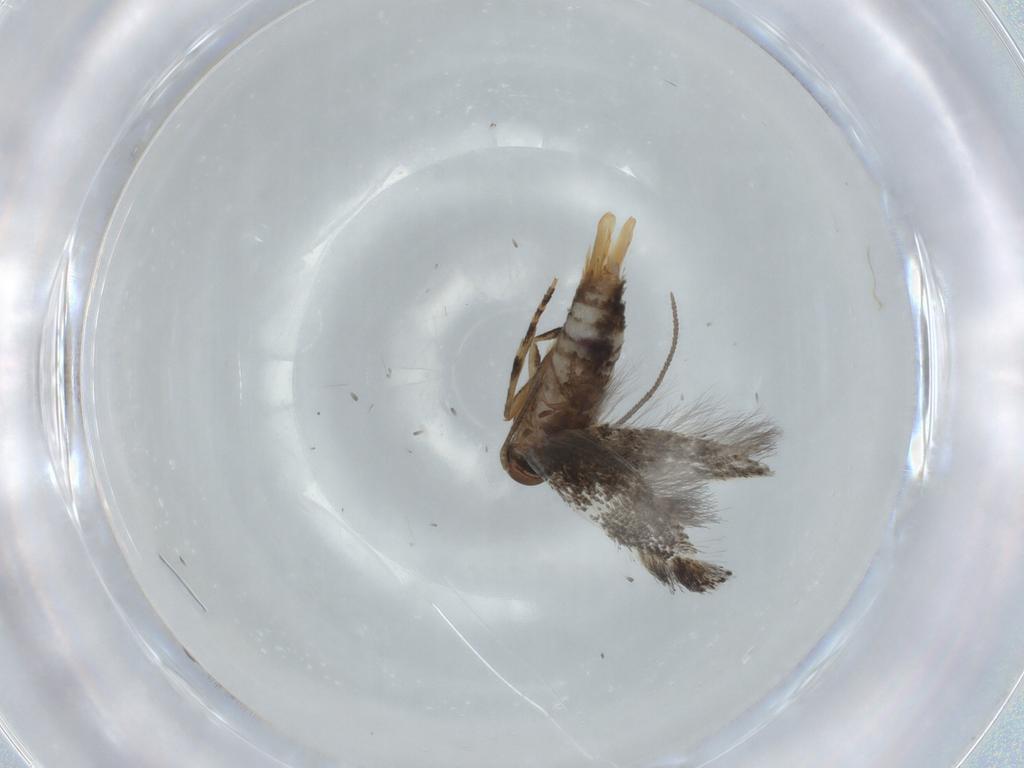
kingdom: Animalia
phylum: Arthropoda
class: Insecta
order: Lepidoptera
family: Elachistidae
